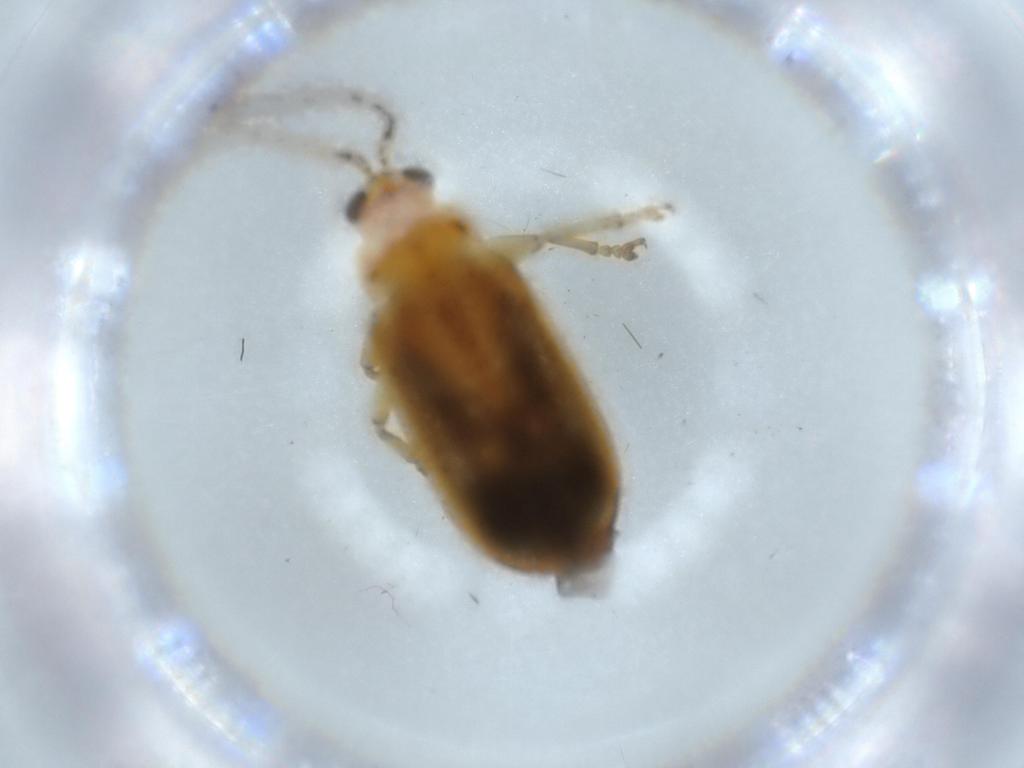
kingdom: Animalia
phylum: Arthropoda
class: Insecta
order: Coleoptera
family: Chrysomelidae
